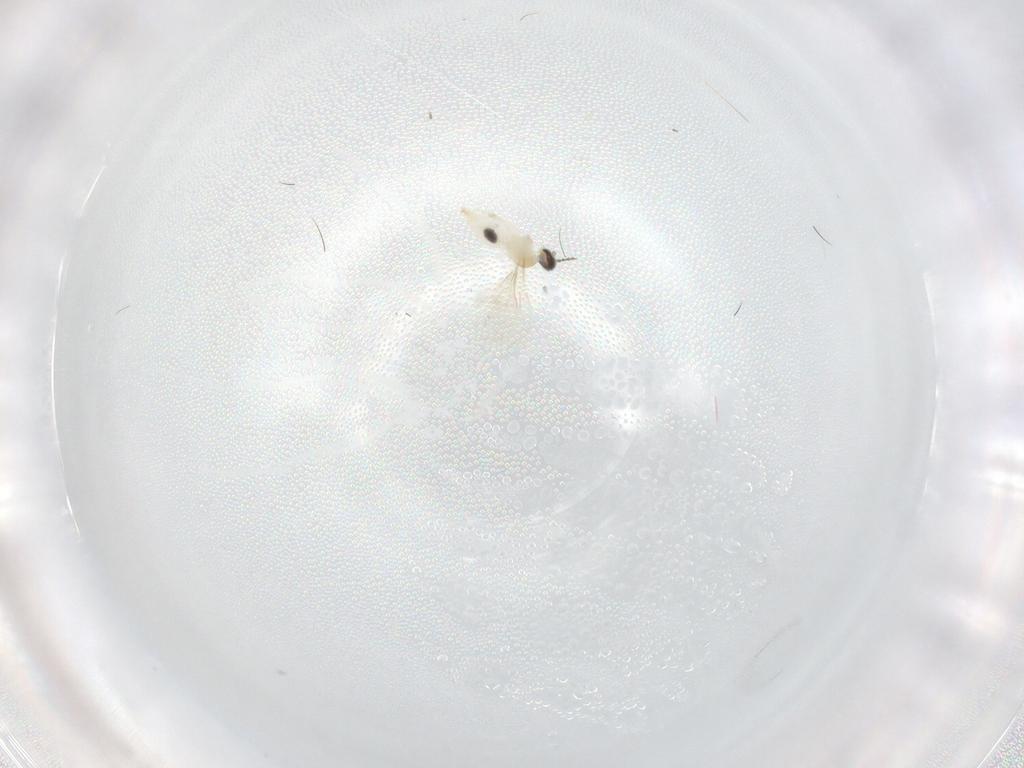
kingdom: Animalia
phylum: Arthropoda
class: Insecta
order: Diptera
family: Cecidomyiidae
